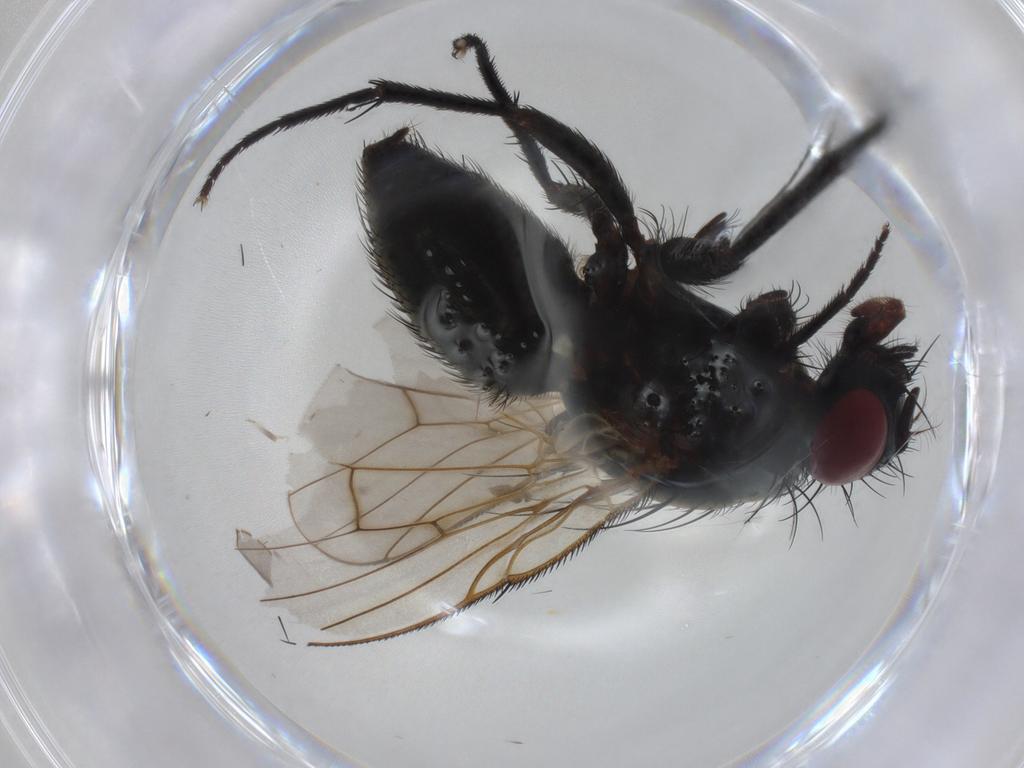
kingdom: Animalia
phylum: Arthropoda
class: Insecta
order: Diptera
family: Muscidae
